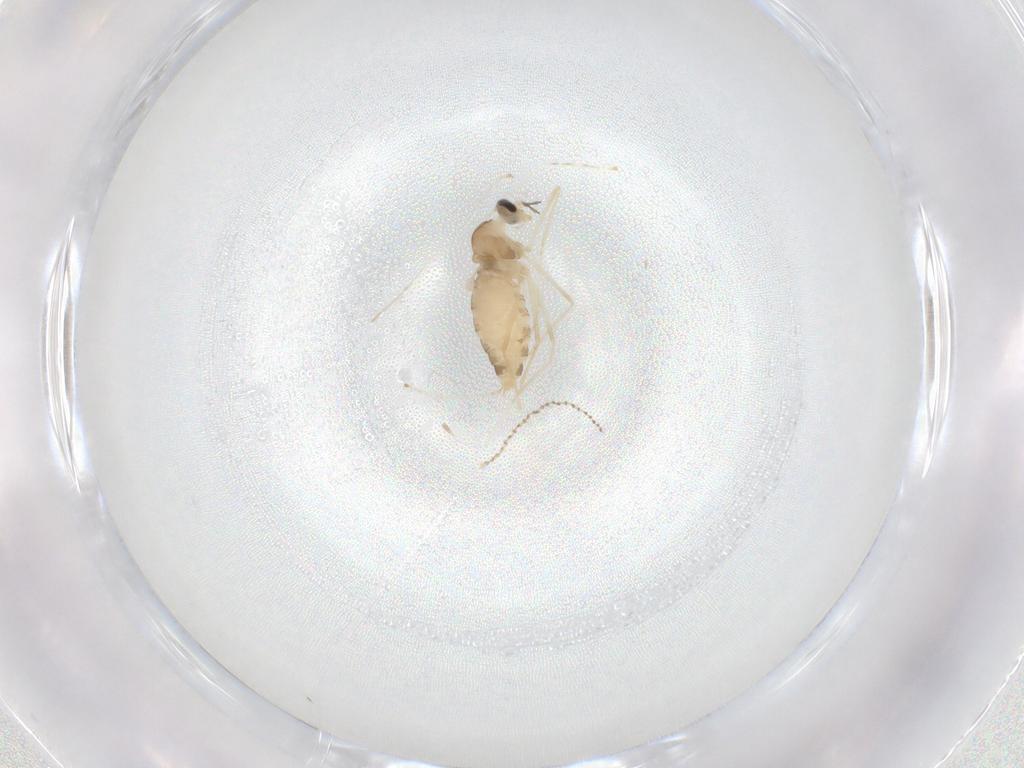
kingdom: Animalia
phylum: Arthropoda
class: Insecta
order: Diptera
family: Cecidomyiidae
